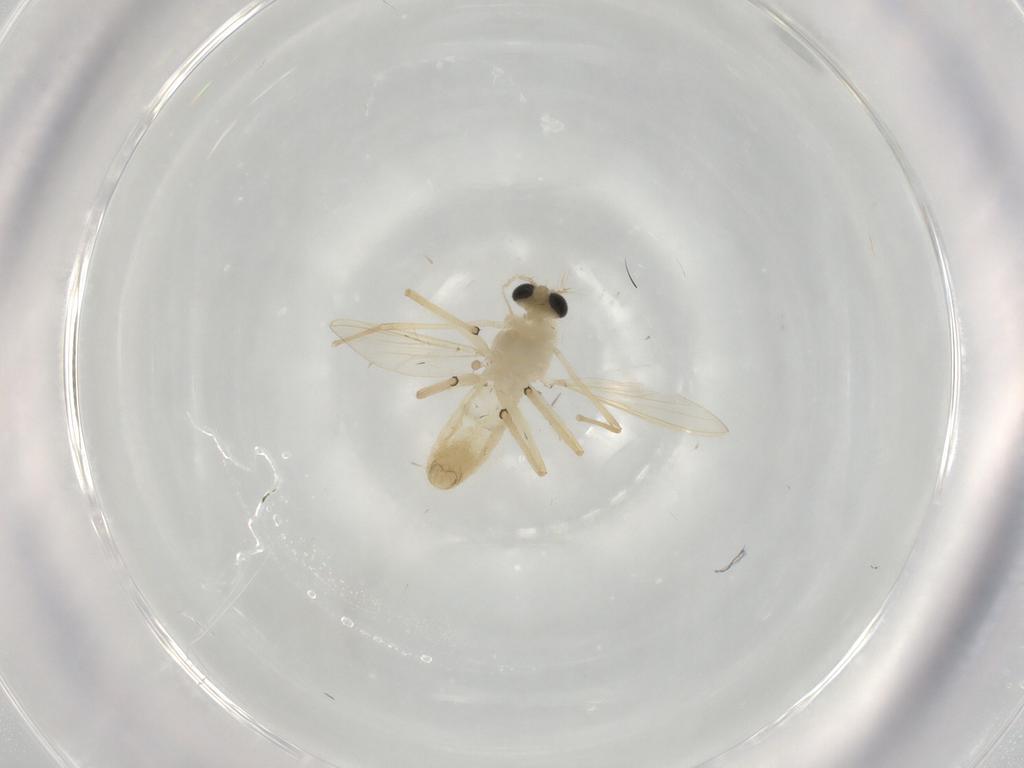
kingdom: Animalia
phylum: Arthropoda
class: Insecta
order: Diptera
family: Chironomidae
